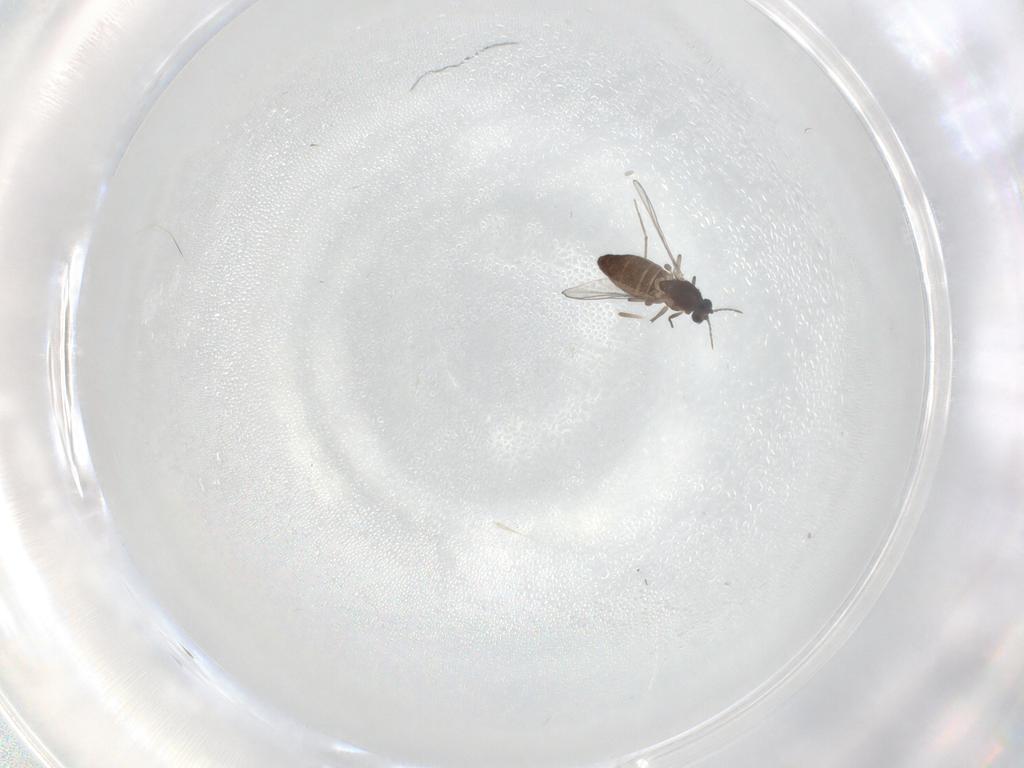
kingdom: Animalia
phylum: Arthropoda
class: Insecta
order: Diptera
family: Chironomidae
